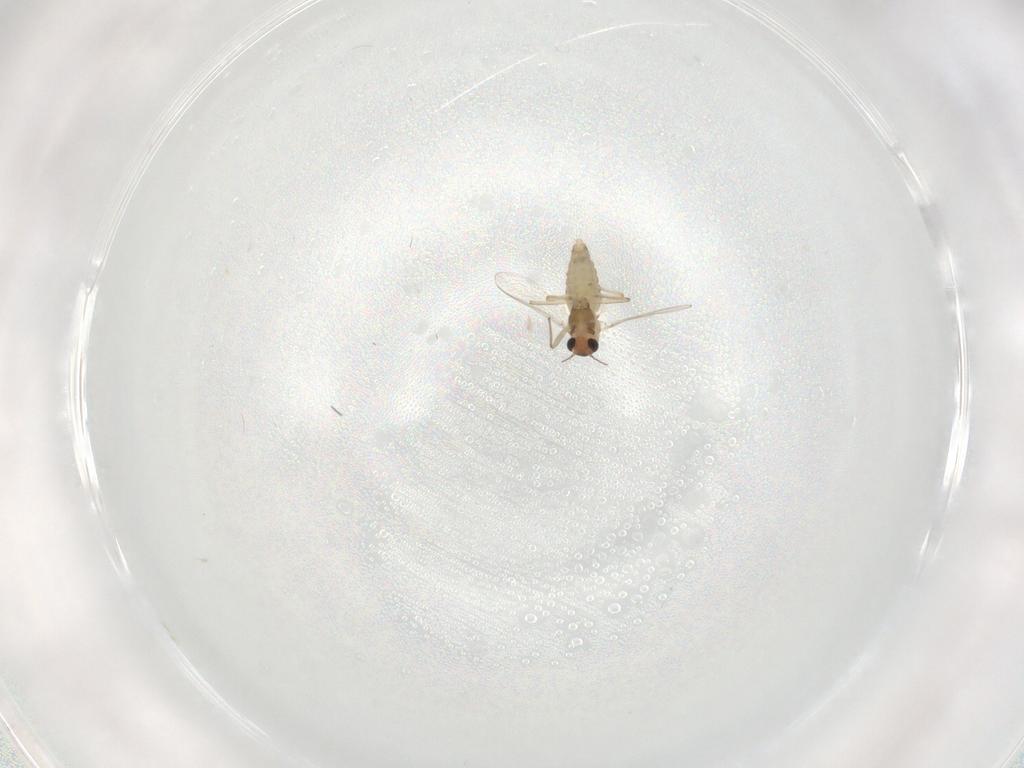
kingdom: Animalia
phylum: Arthropoda
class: Insecta
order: Diptera
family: Chironomidae
